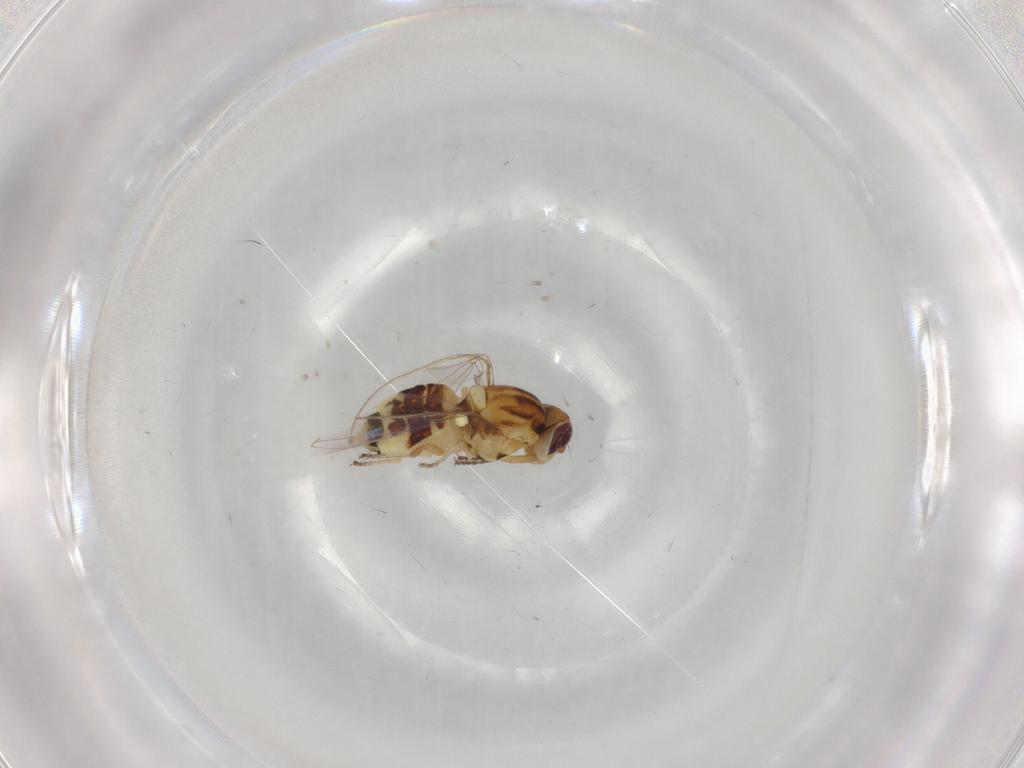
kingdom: Animalia
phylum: Arthropoda
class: Insecta
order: Diptera
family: Asteiidae
